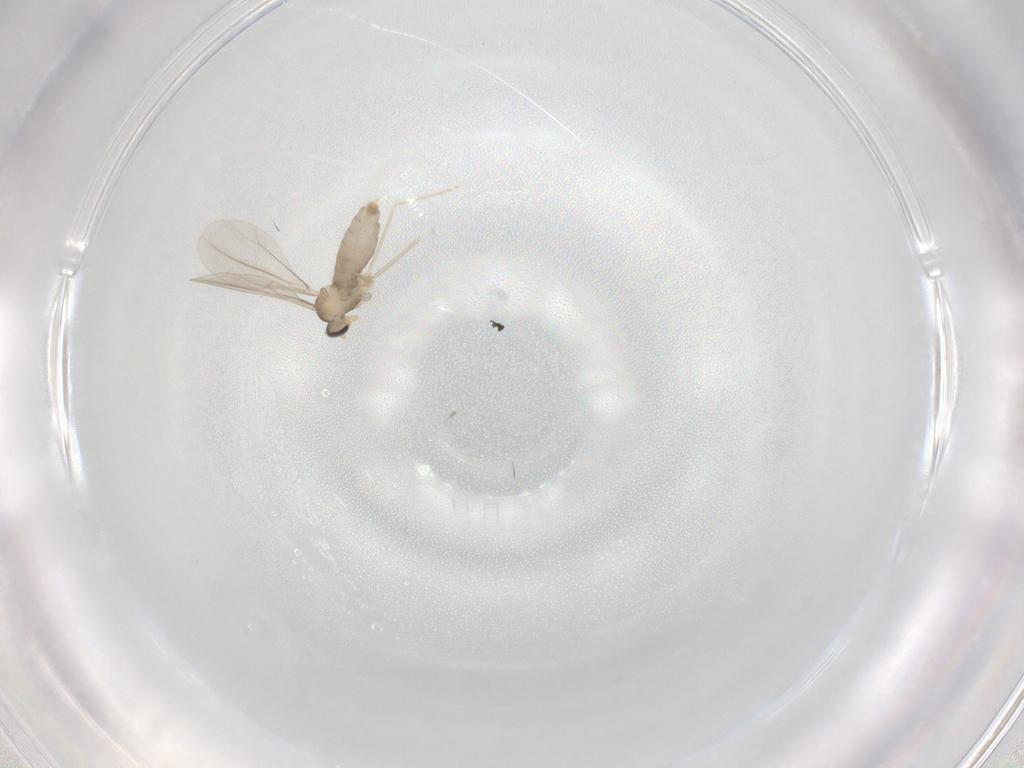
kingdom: Animalia
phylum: Arthropoda
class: Insecta
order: Diptera
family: Cecidomyiidae
